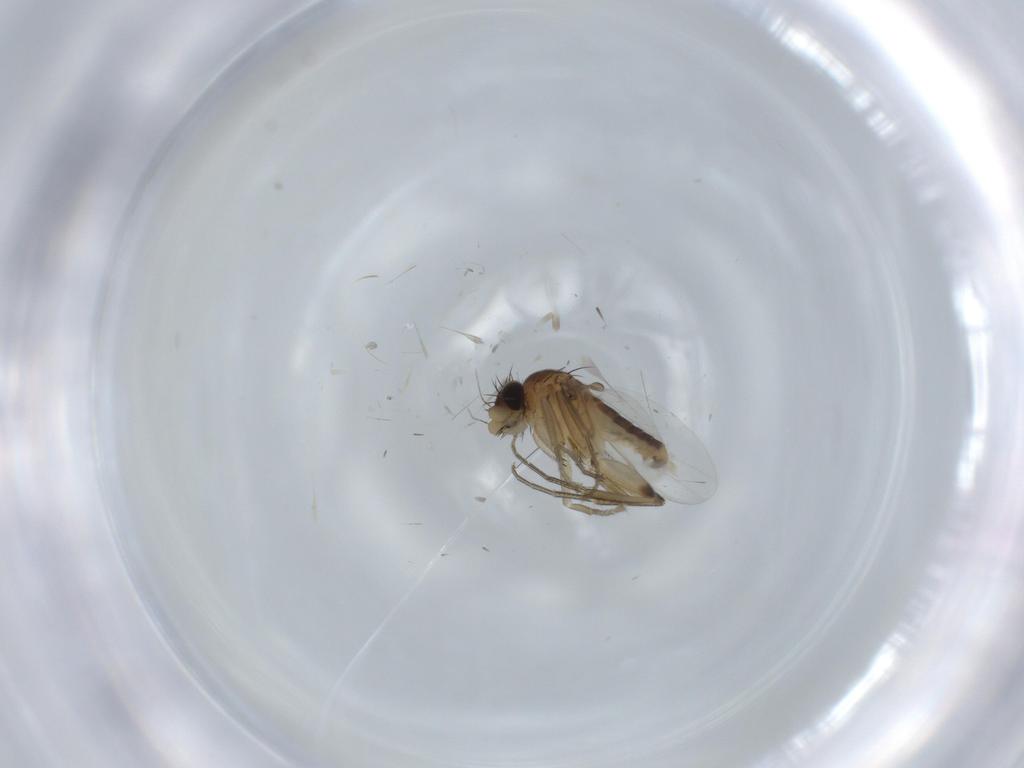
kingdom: Animalia
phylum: Arthropoda
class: Insecta
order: Diptera
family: Phoridae
